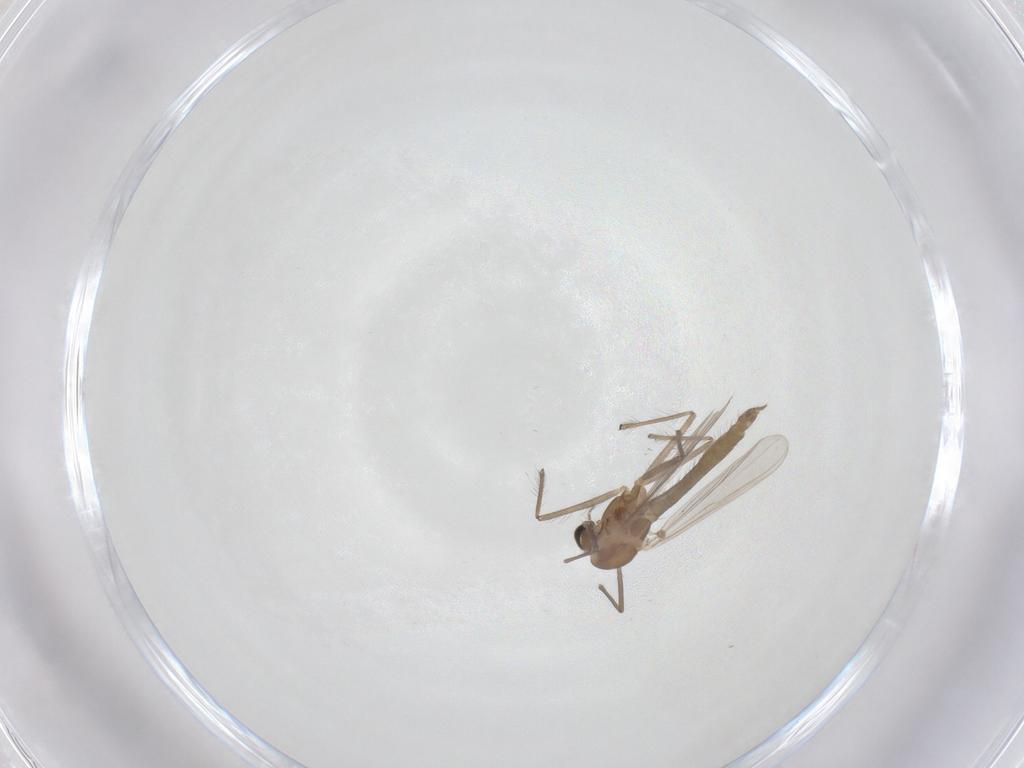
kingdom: Animalia
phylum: Arthropoda
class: Insecta
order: Diptera
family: Chironomidae
